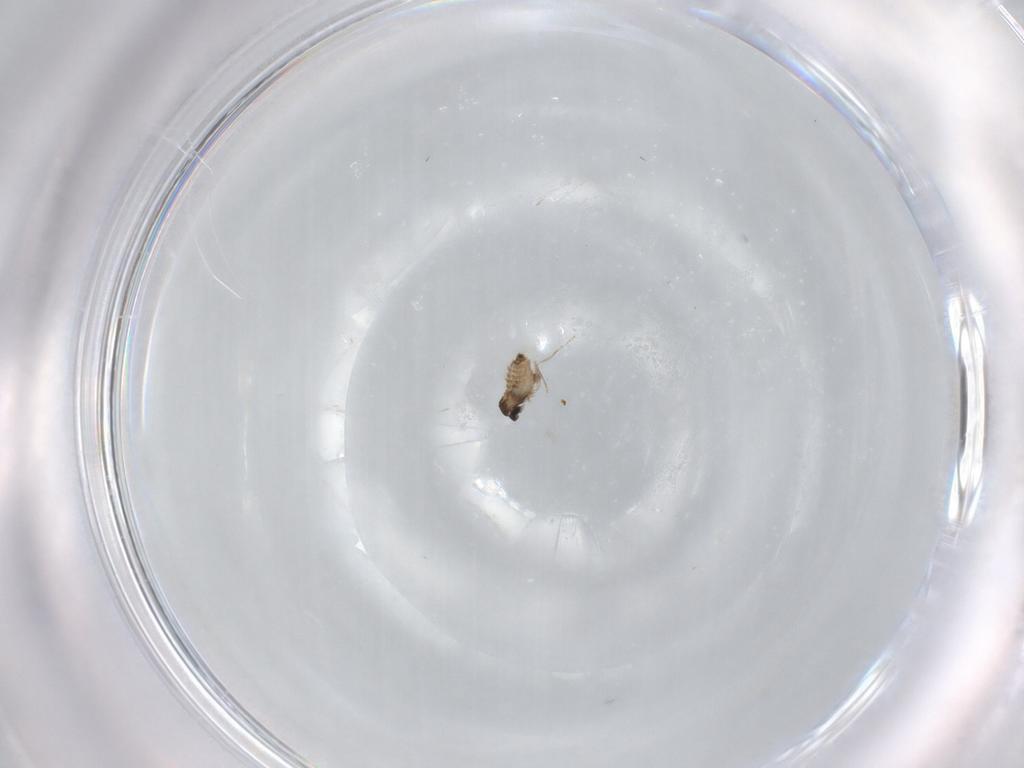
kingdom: Animalia
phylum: Arthropoda
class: Insecta
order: Diptera
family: Cecidomyiidae
